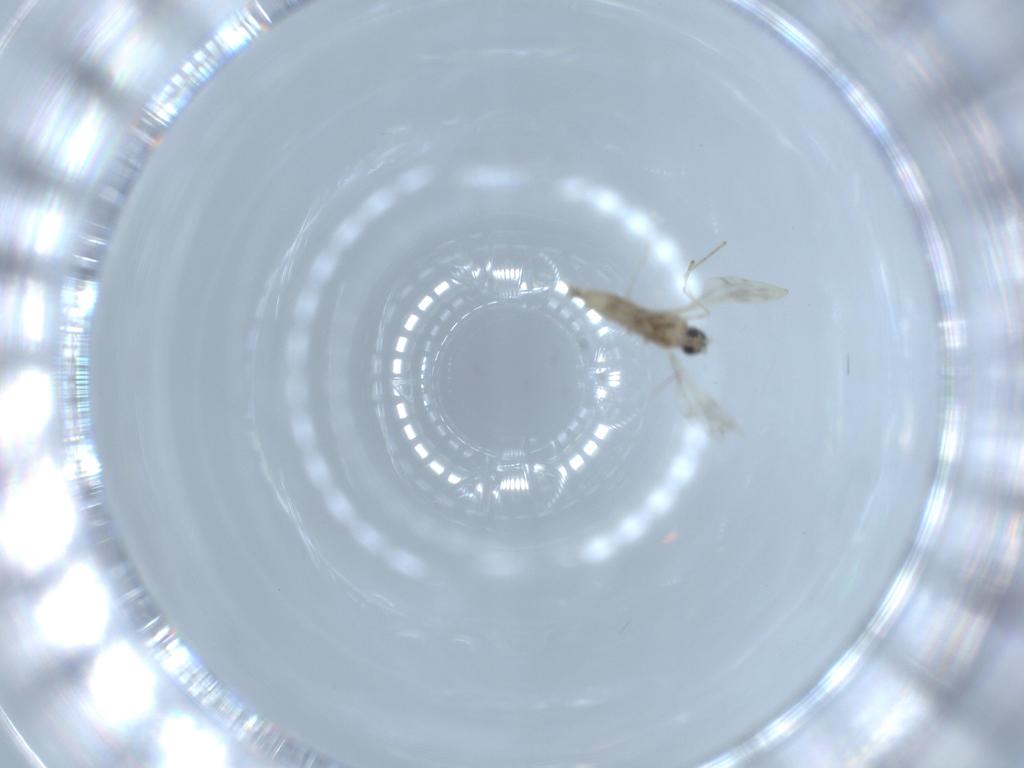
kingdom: Animalia
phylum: Arthropoda
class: Insecta
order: Diptera
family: Cecidomyiidae
